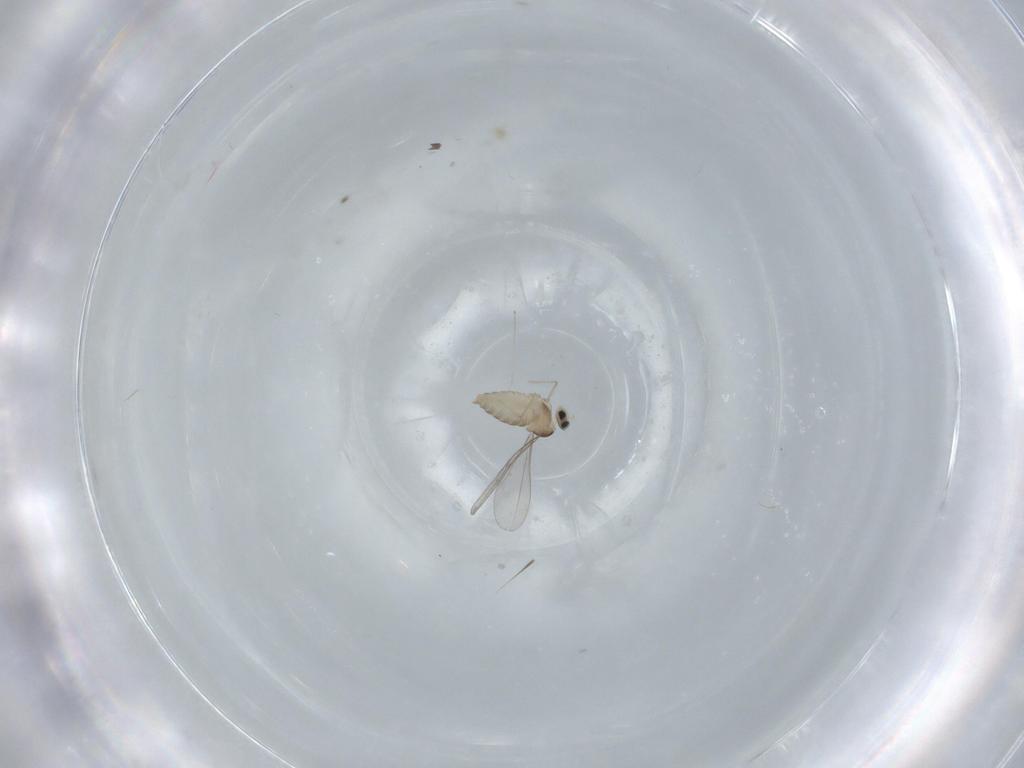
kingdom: Animalia
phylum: Arthropoda
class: Insecta
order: Diptera
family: Cecidomyiidae
